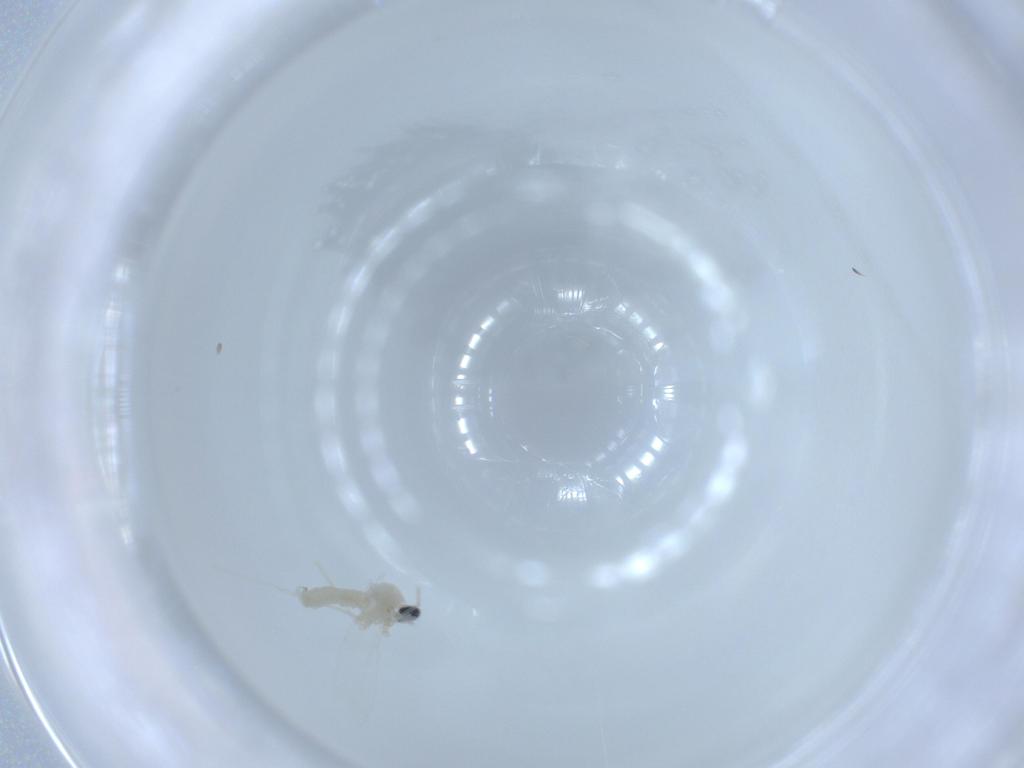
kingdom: Animalia
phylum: Arthropoda
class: Insecta
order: Diptera
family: Cecidomyiidae
